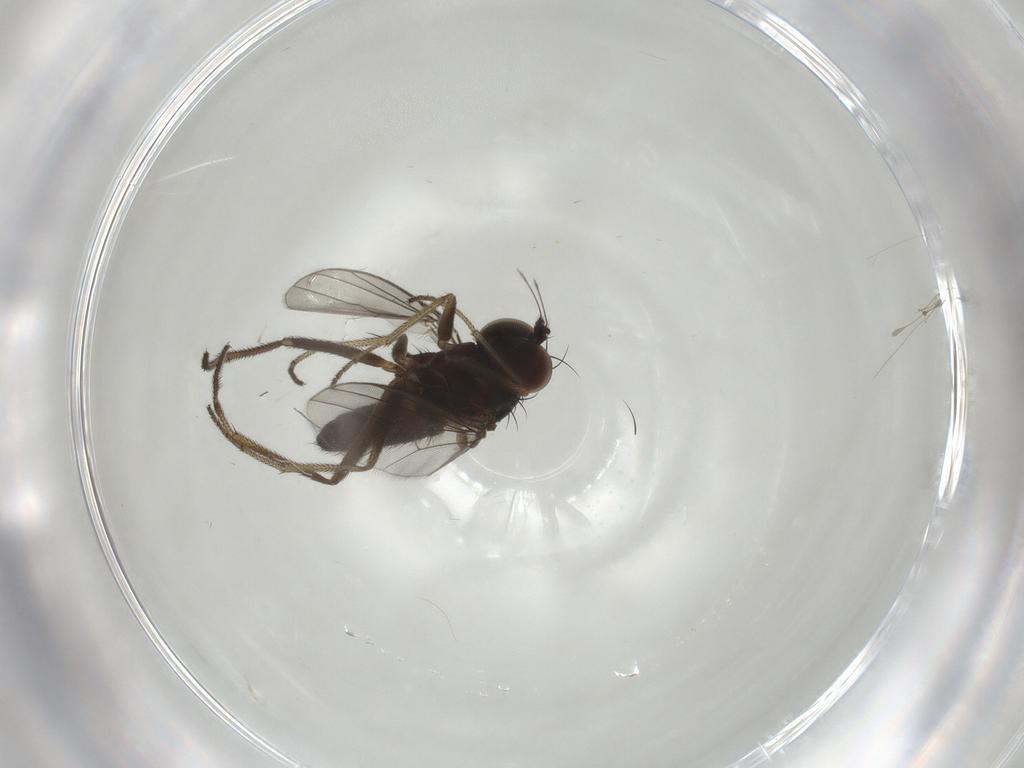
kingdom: Animalia
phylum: Arthropoda
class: Insecta
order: Diptera
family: Dolichopodidae
